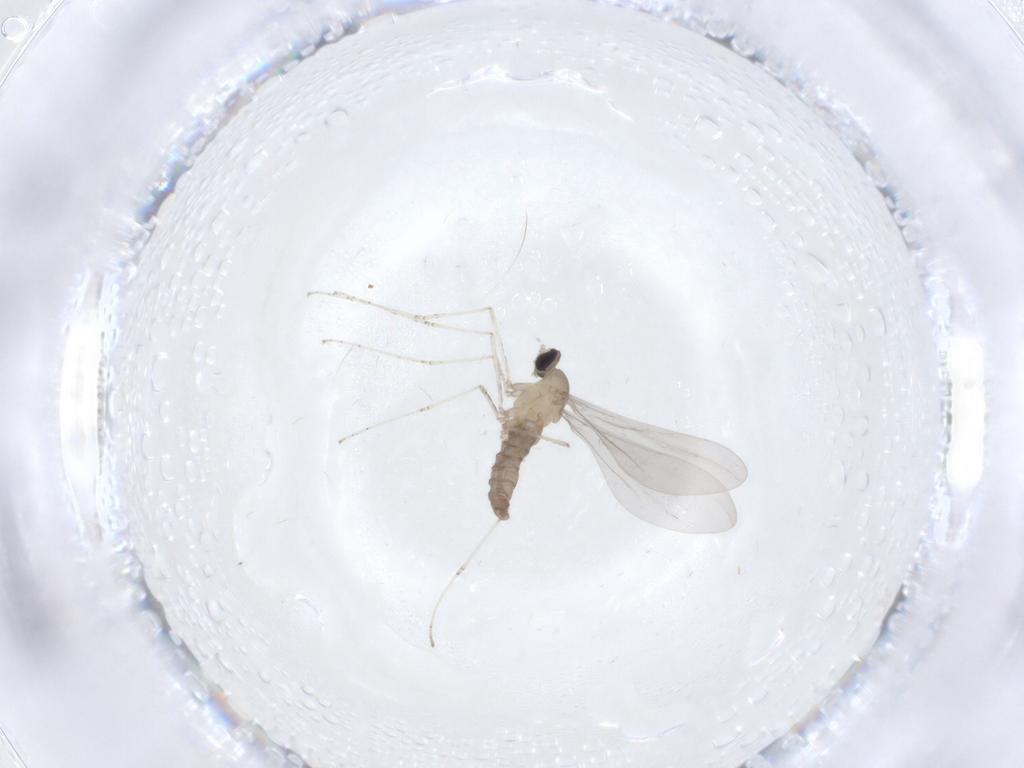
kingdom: Animalia
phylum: Arthropoda
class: Insecta
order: Diptera
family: Cecidomyiidae
